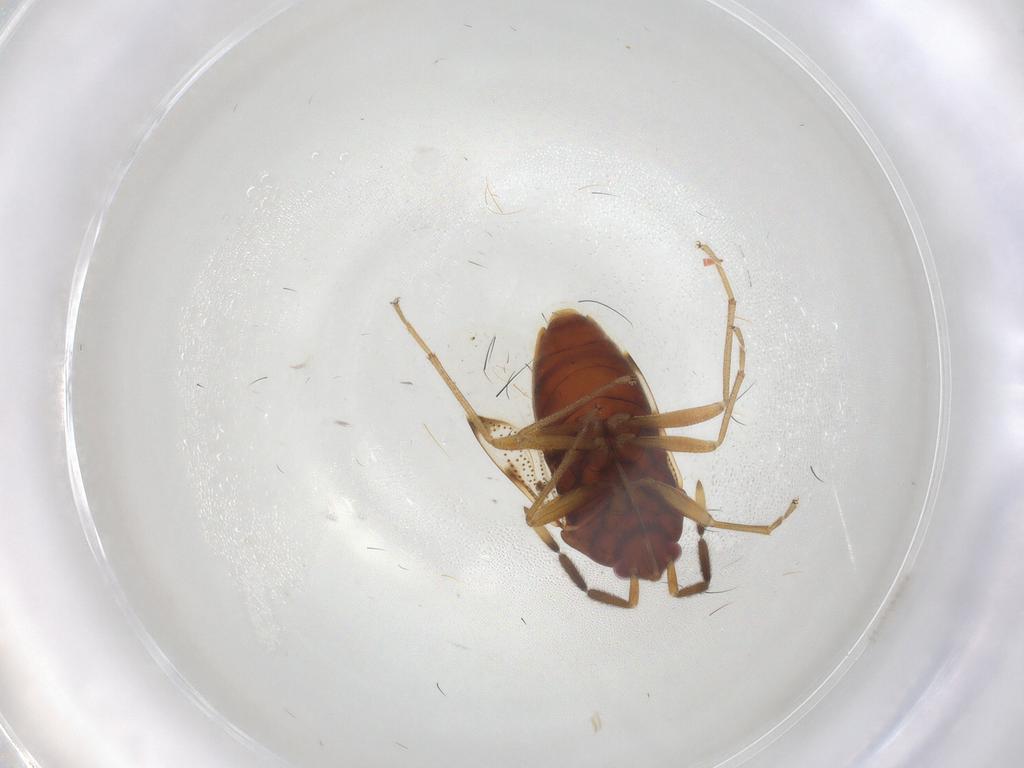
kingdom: Animalia
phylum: Arthropoda
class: Insecta
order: Hemiptera
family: Rhyparochromidae
